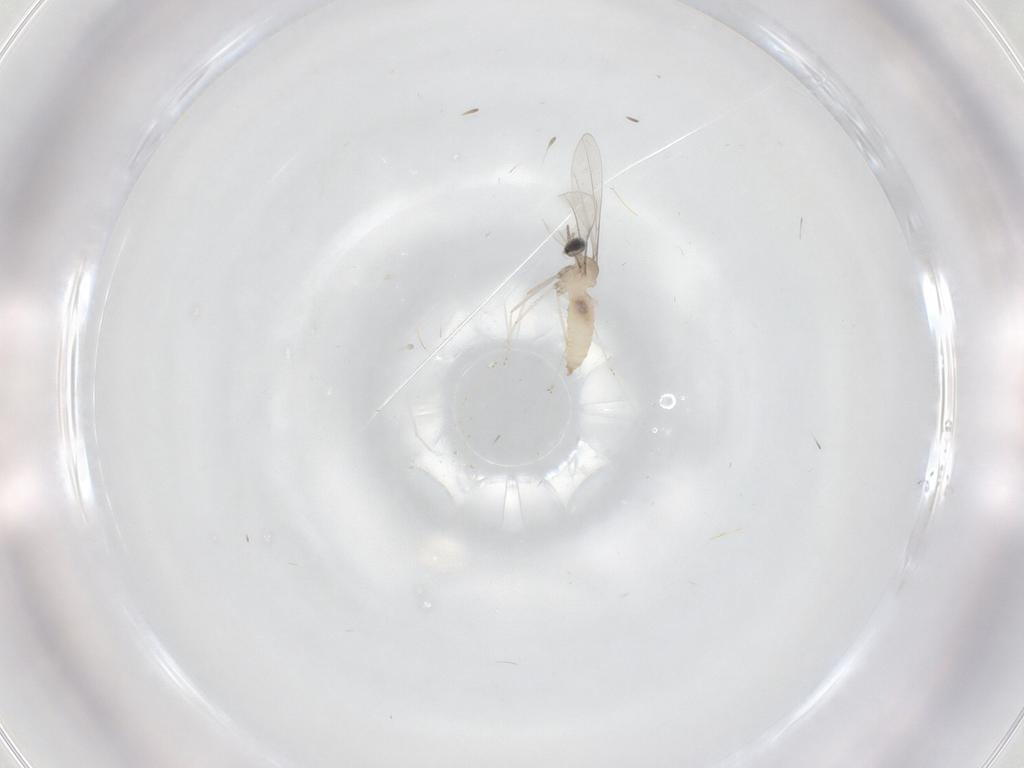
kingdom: Animalia
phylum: Arthropoda
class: Insecta
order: Diptera
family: Cecidomyiidae
